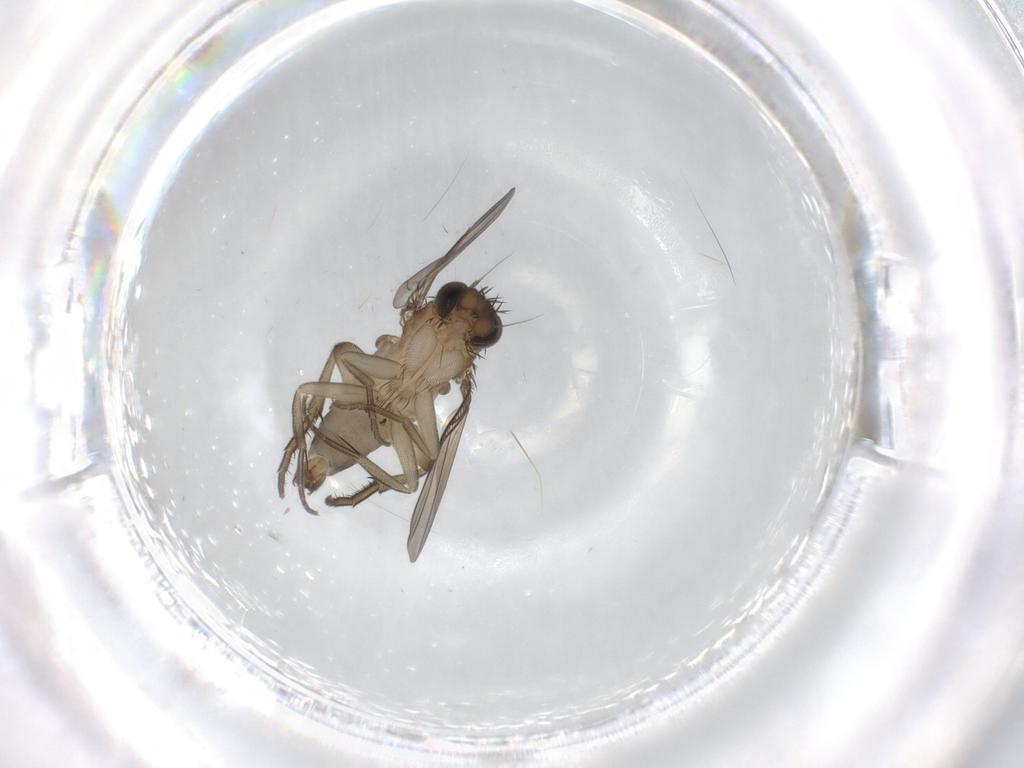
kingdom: Animalia
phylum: Arthropoda
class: Insecta
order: Diptera
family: Phoridae
